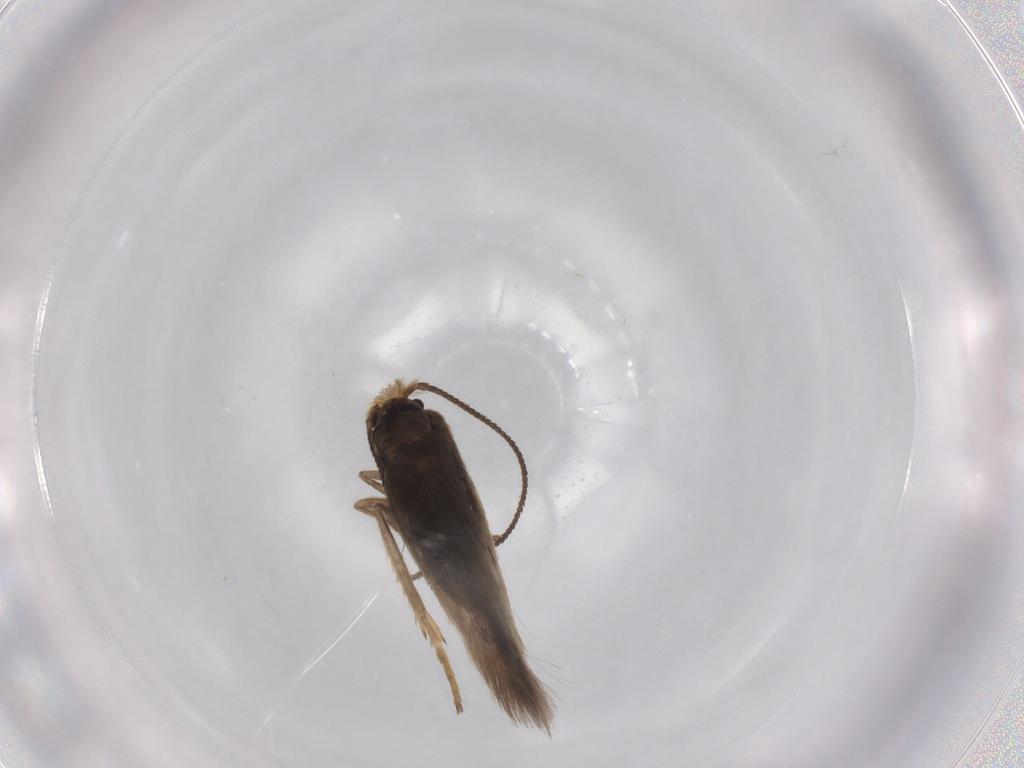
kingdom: Animalia
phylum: Arthropoda
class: Insecta
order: Lepidoptera
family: Nepticulidae
